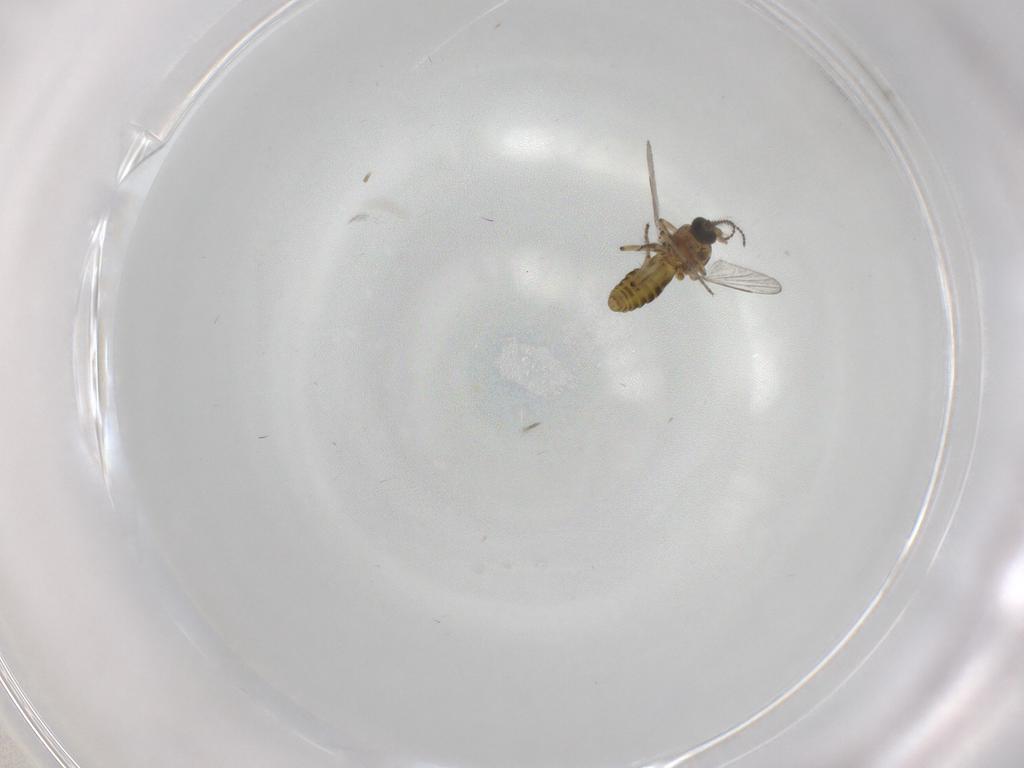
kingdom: Animalia
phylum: Arthropoda
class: Insecta
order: Diptera
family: Ceratopogonidae
